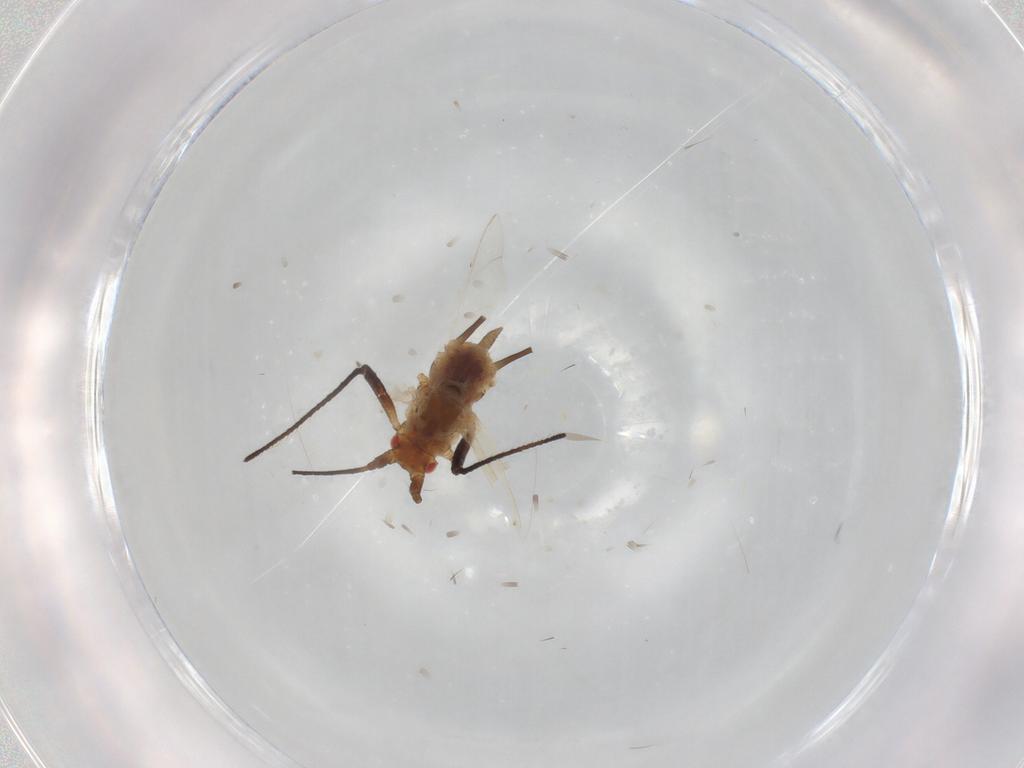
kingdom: Animalia
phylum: Arthropoda
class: Insecta
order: Hemiptera
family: Aphididae
